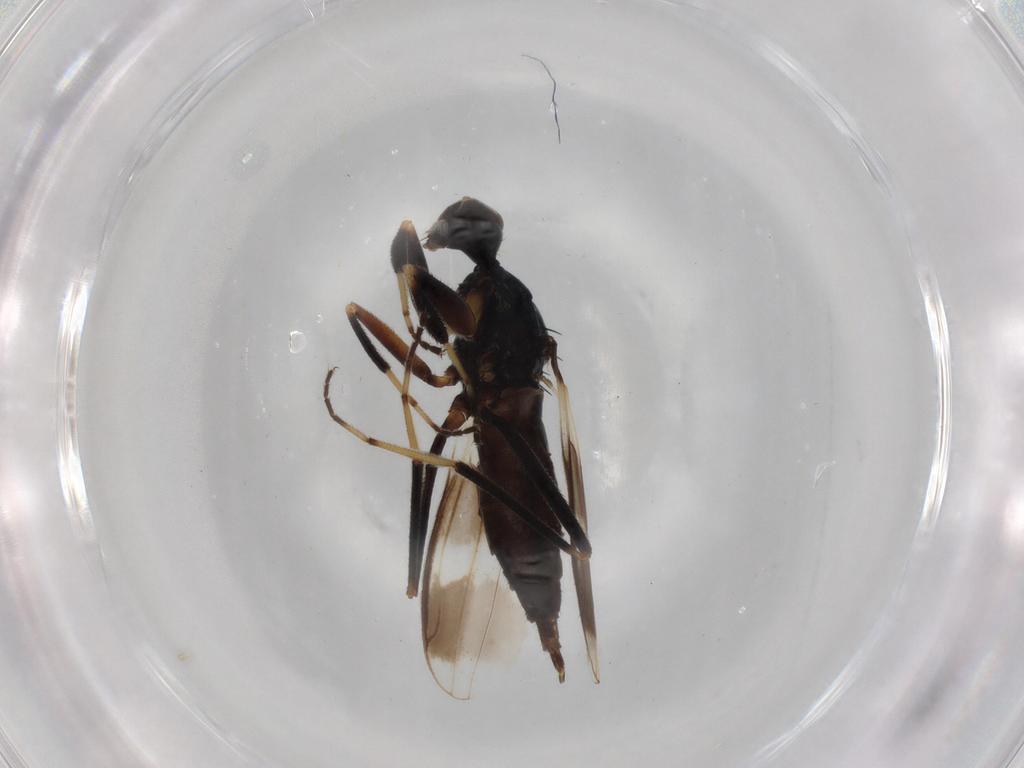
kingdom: Animalia
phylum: Arthropoda
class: Insecta
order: Diptera
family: Hybotidae
